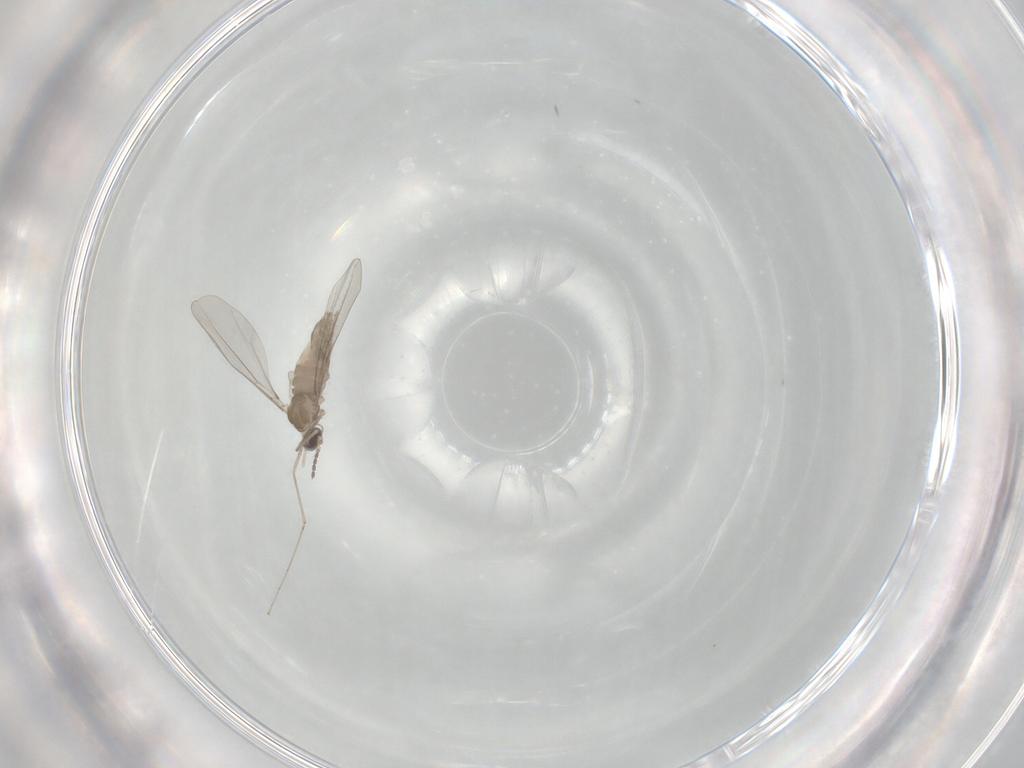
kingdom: Animalia
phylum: Arthropoda
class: Insecta
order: Diptera
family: Cecidomyiidae
